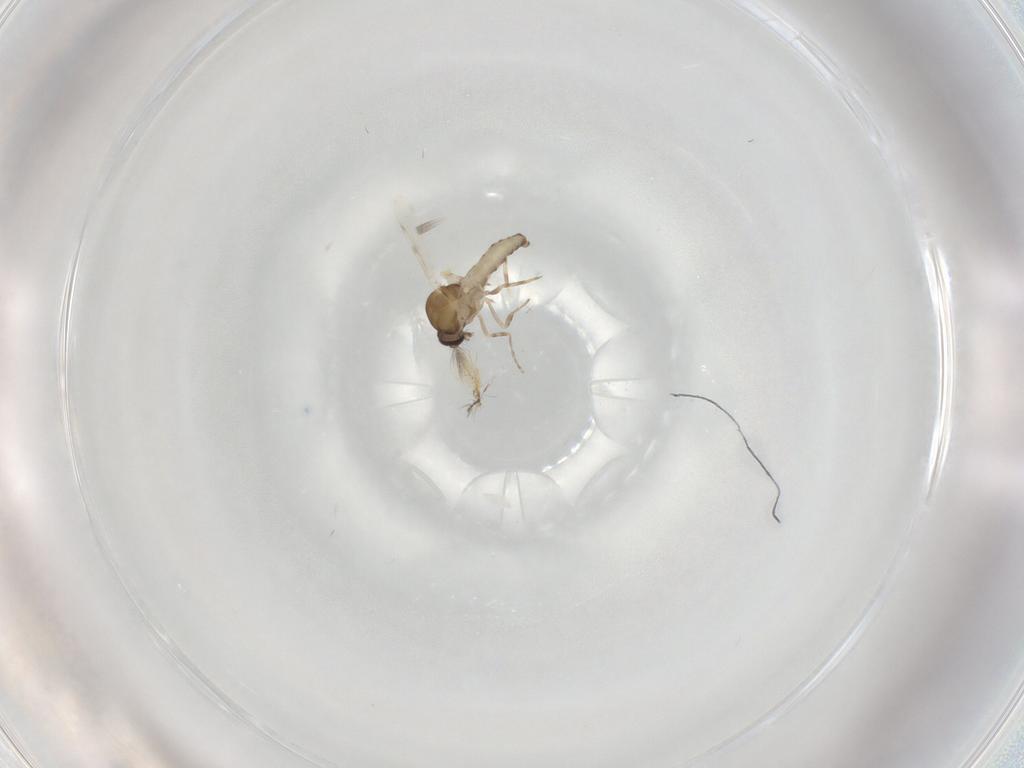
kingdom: Animalia
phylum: Arthropoda
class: Insecta
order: Diptera
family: Ceratopogonidae
